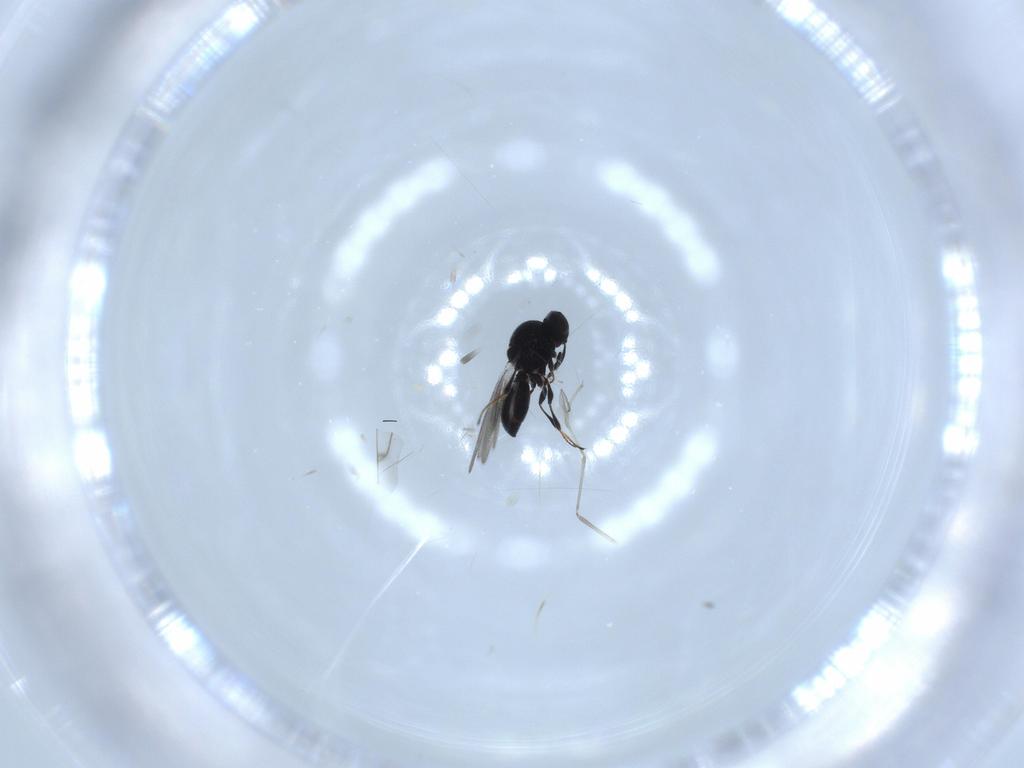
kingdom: Animalia
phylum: Arthropoda
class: Insecta
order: Hymenoptera
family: Platygastridae
